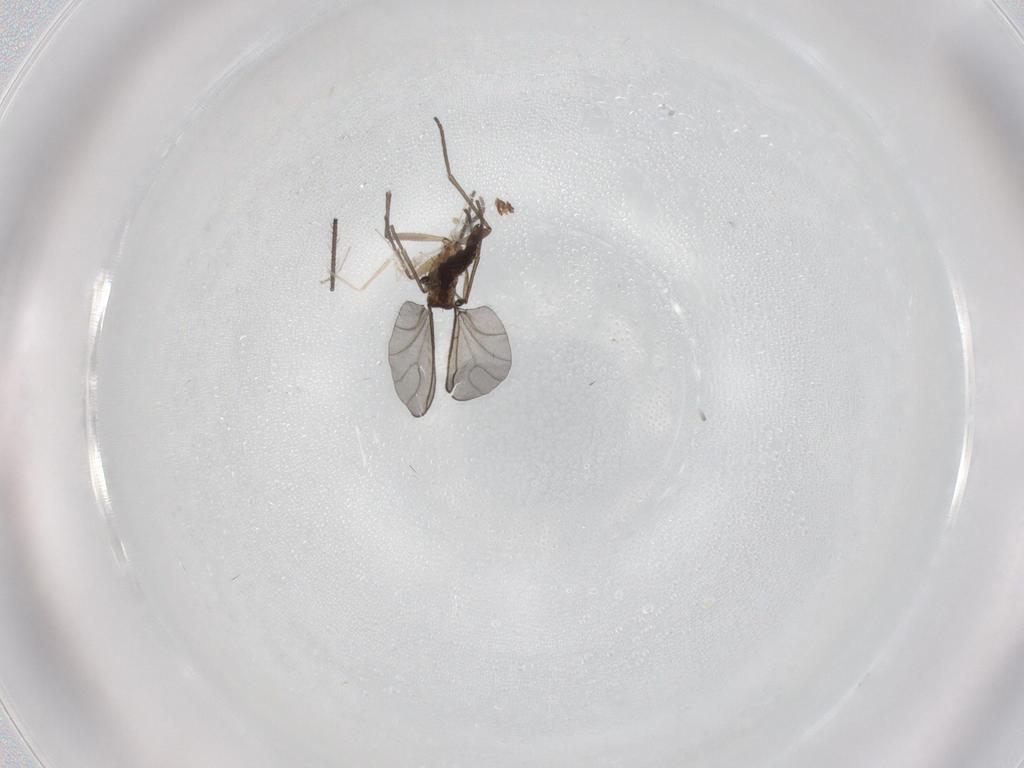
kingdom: Animalia
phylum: Arthropoda
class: Insecta
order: Diptera
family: Sciaridae
